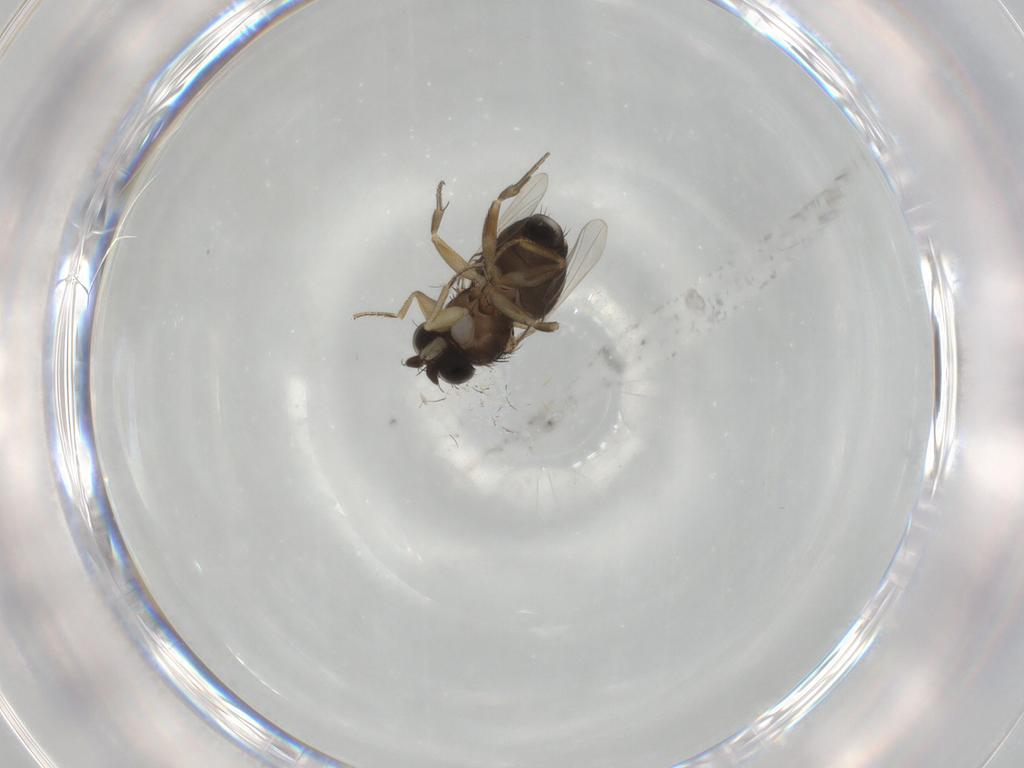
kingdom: Animalia
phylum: Arthropoda
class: Insecta
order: Diptera
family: Phoridae
